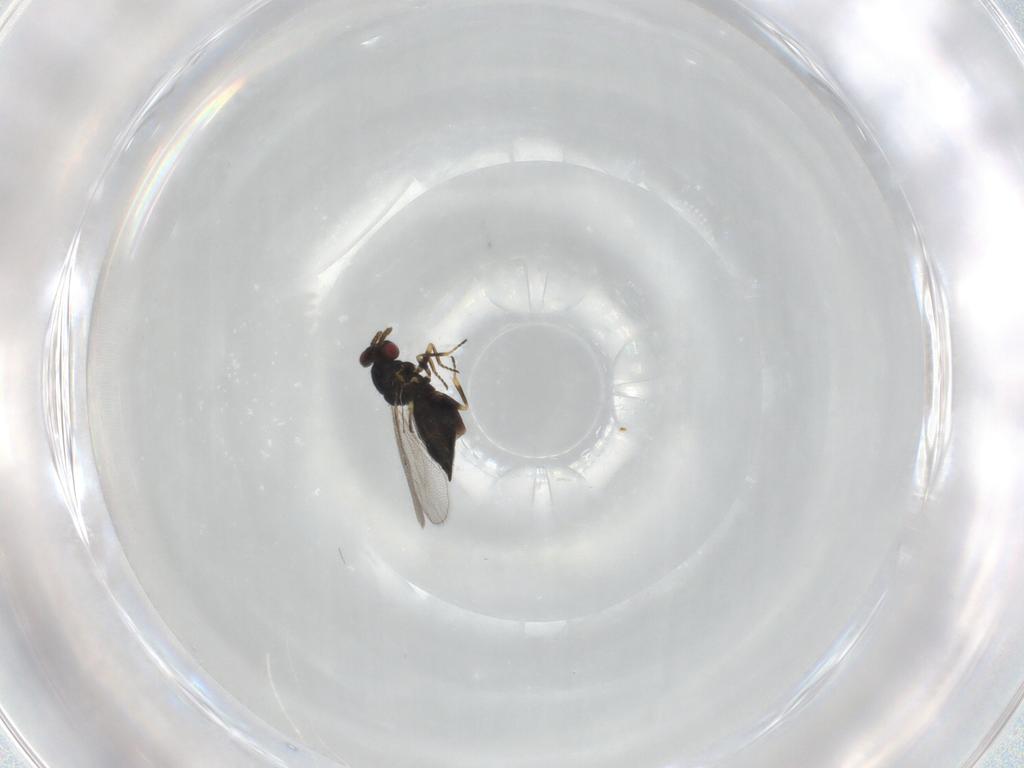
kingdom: Animalia
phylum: Arthropoda
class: Insecta
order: Hymenoptera
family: Eulophidae
